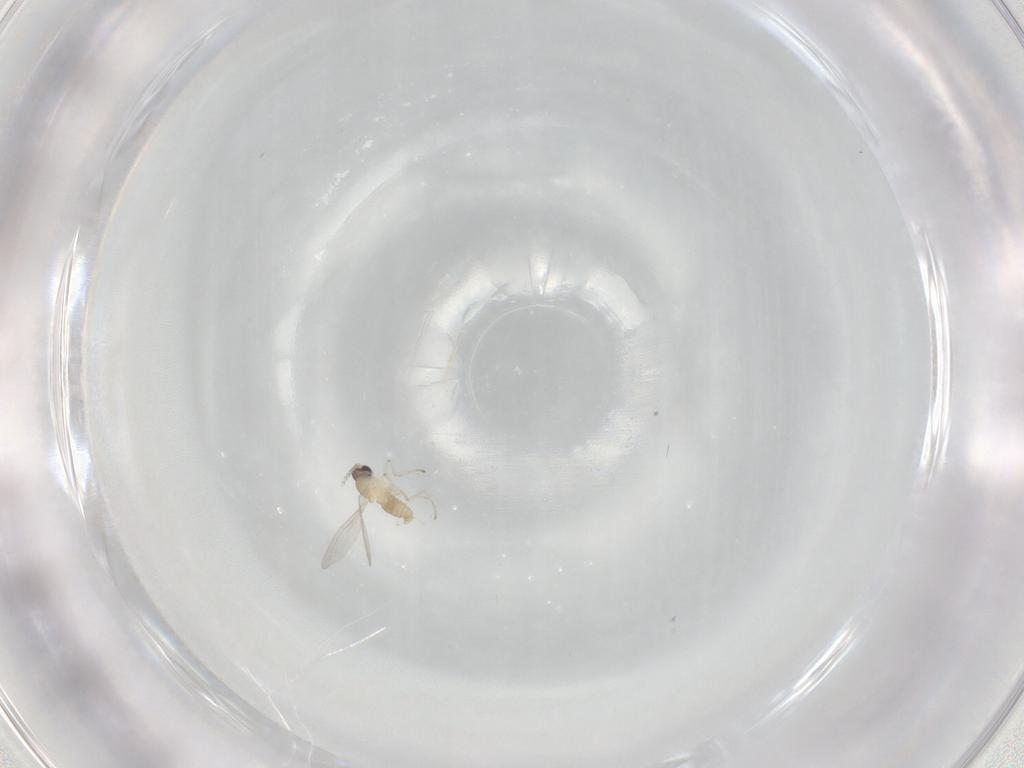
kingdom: Animalia
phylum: Arthropoda
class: Insecta
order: Diptera
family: Cecidomyiidae
